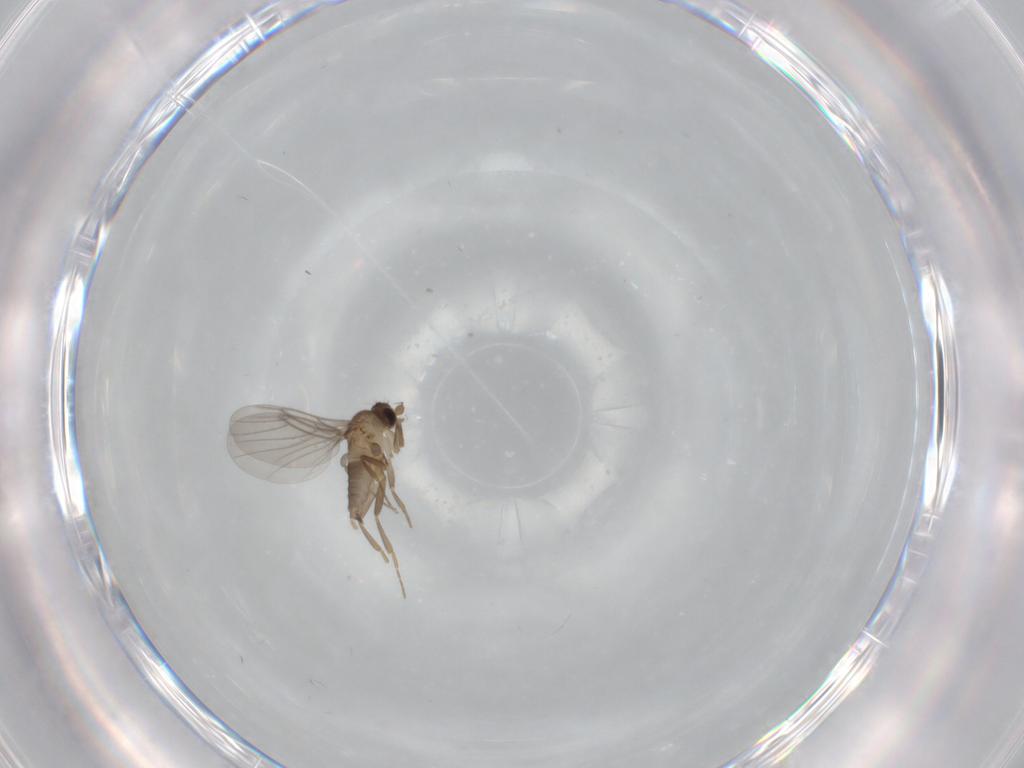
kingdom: Animalia
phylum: Arthropoda
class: Insecta
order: Diptera
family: Phoridae
